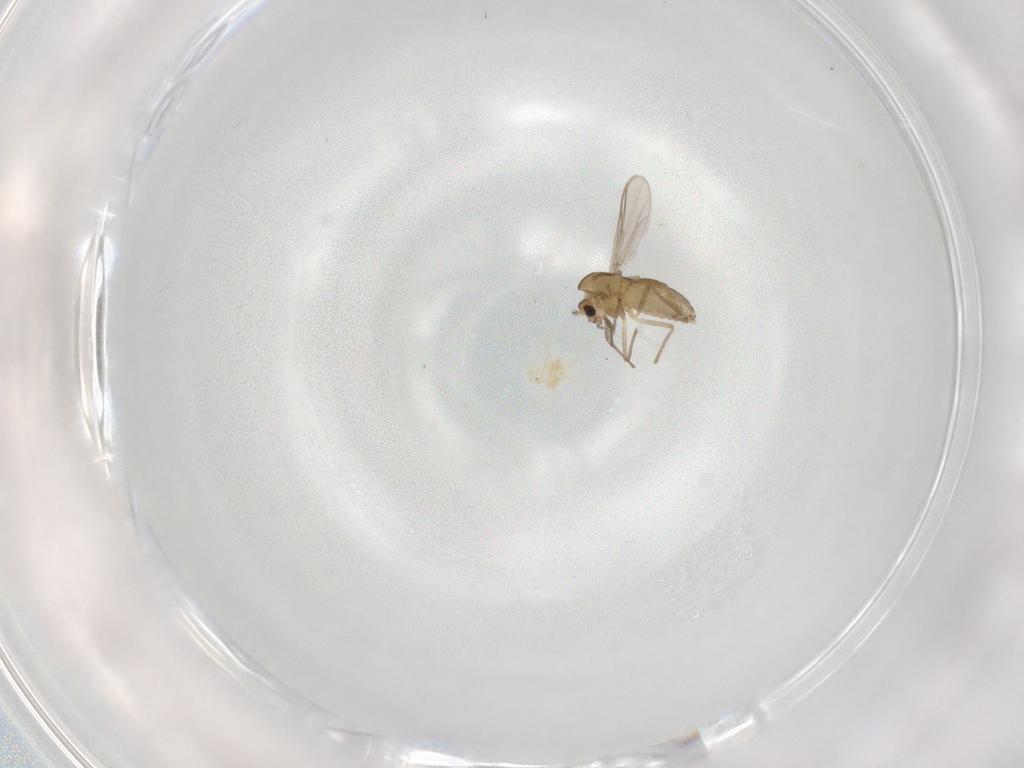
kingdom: Animalia
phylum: Arthropoda
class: Insecta
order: Diptera
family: Chironomidae
